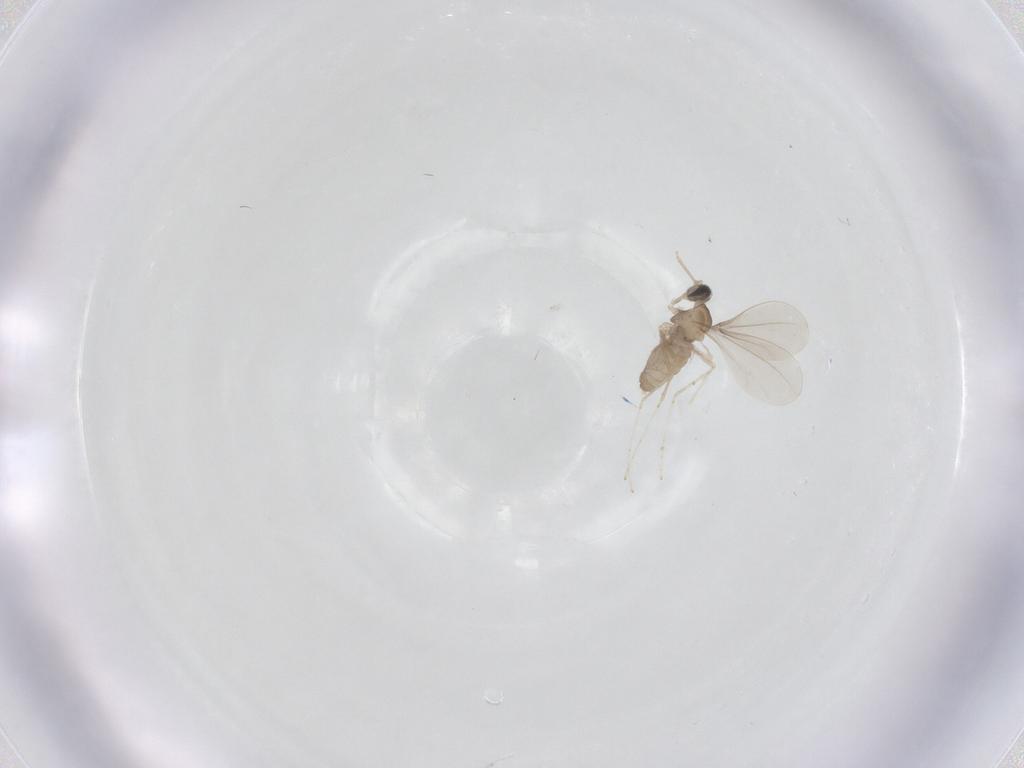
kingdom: Animalia
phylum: Arthropoda
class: Insecta
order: Diptera
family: Cecidomyiidae
